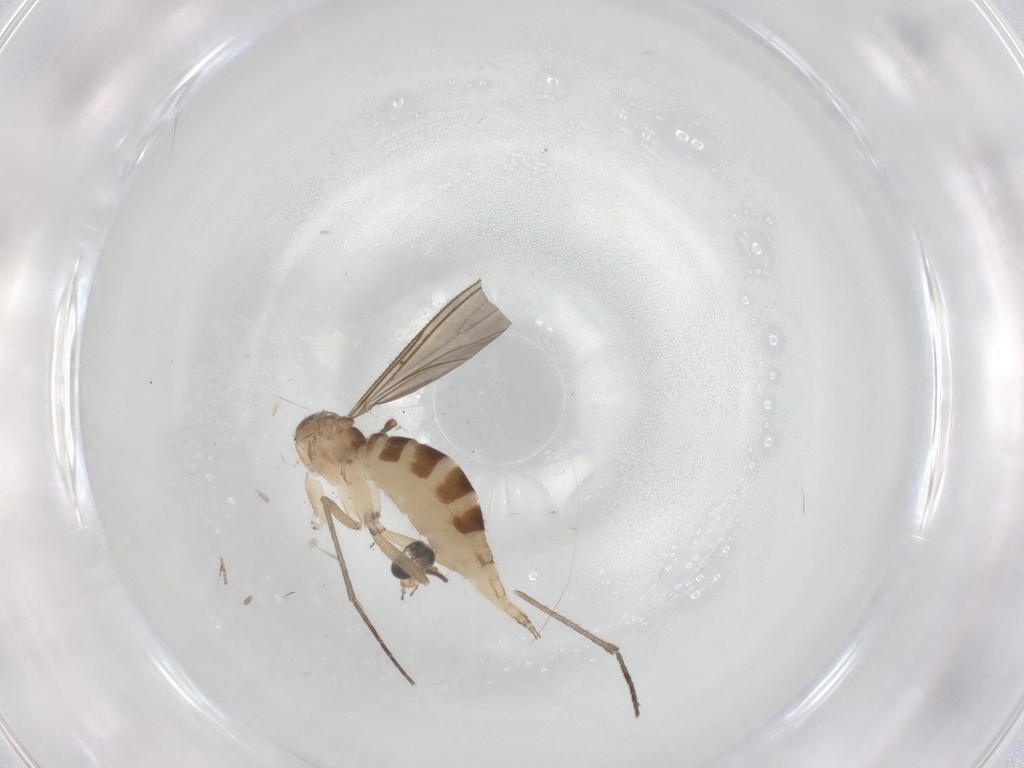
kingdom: Animalia
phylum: Arthropoda
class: Insecta
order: Diptera
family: Sciaridae
